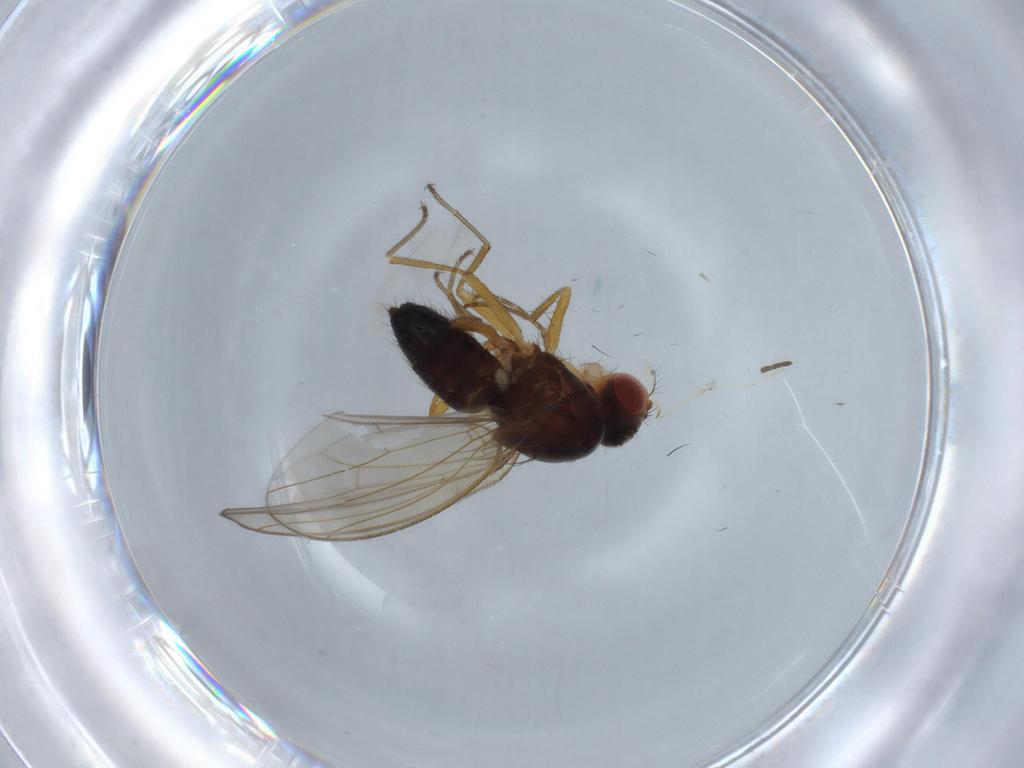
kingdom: Animalia
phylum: Arthropoda
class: Insecta
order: Diptera
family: Drosophilidae
